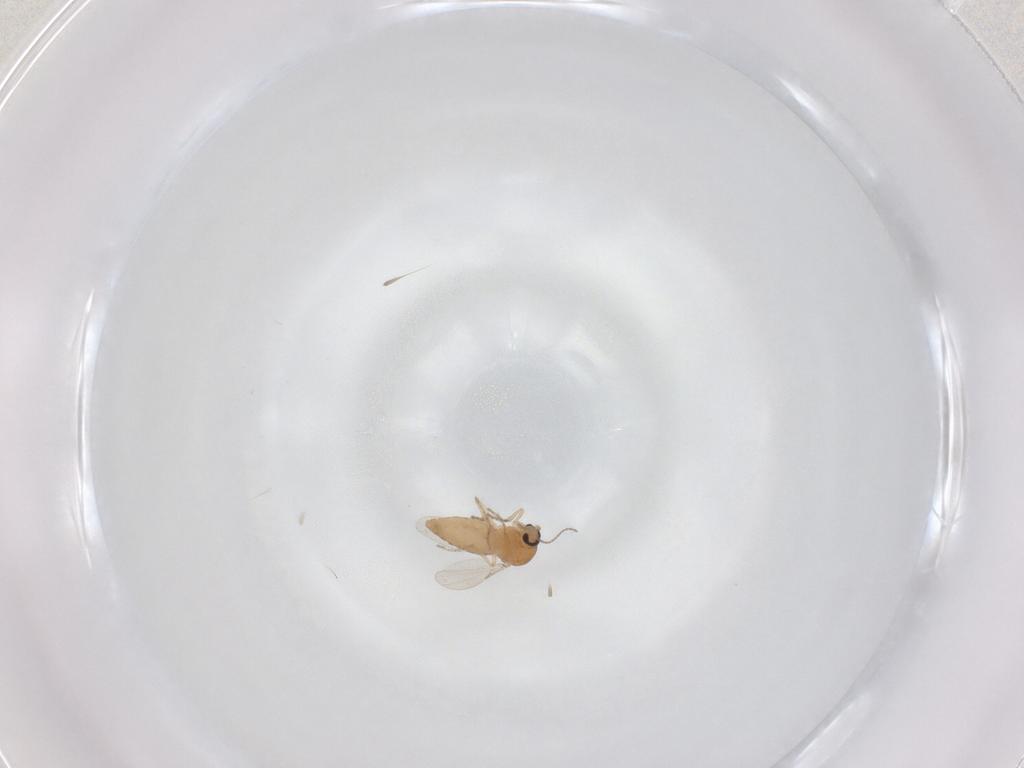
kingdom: Animalia
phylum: Arthropoda
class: Insecta
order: Diptera
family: Ceratopogonidae
